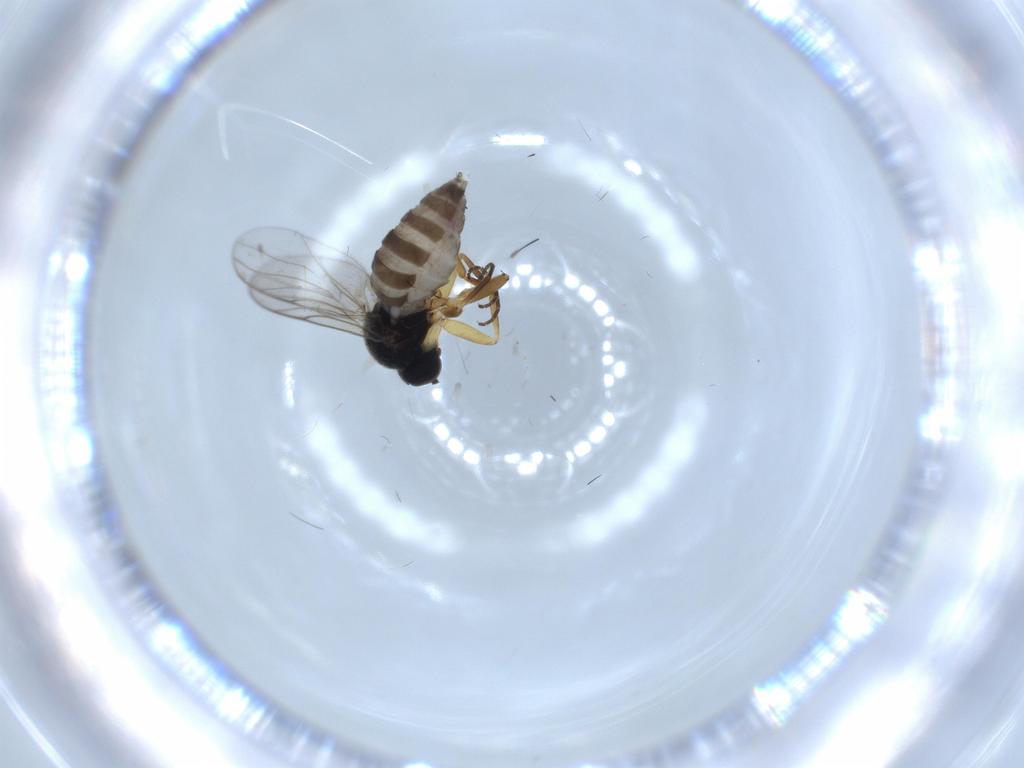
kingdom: Animalia
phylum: Arthropoda
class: Insecta
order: Diptera
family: Hybotidae
